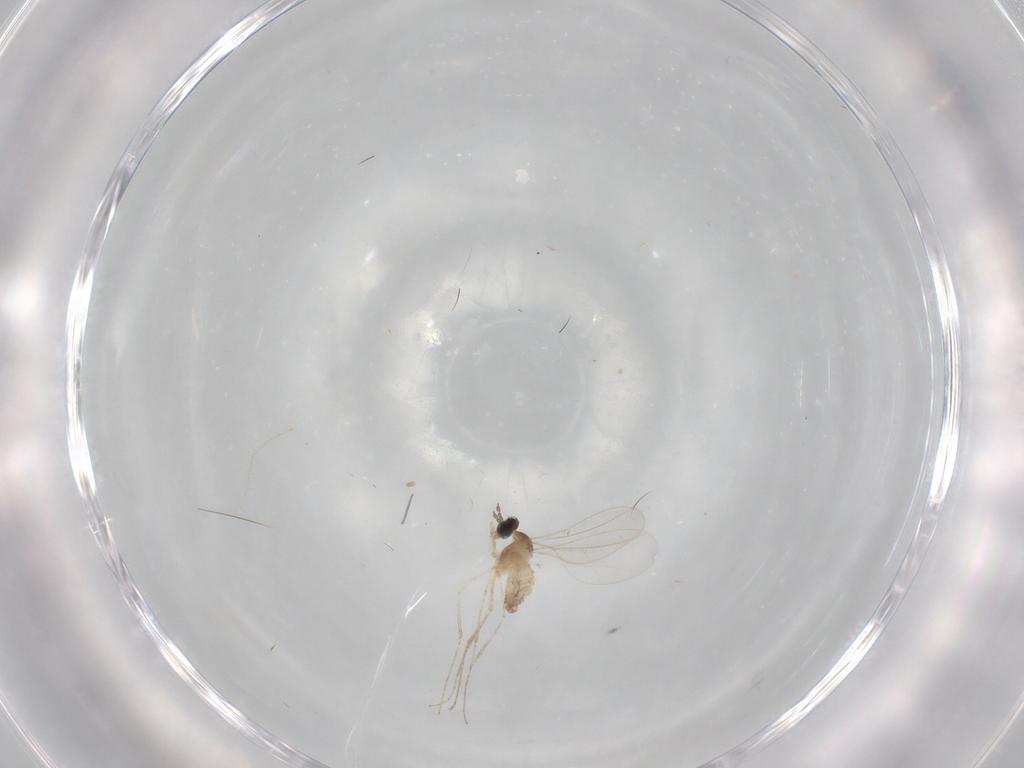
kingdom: Animalia
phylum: Arthropoda
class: Insecta
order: Diptera
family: Cecidomyiidae
